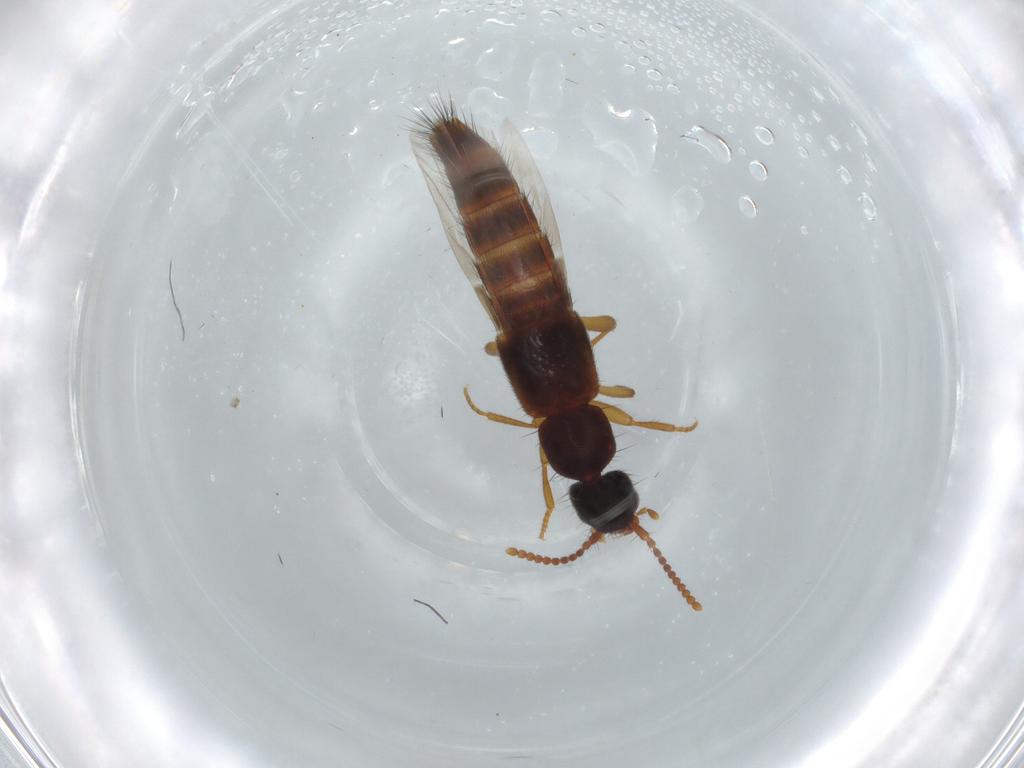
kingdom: Animalia
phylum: Arthropoda
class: Insecta
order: Coleoptera
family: Staphylinidae
